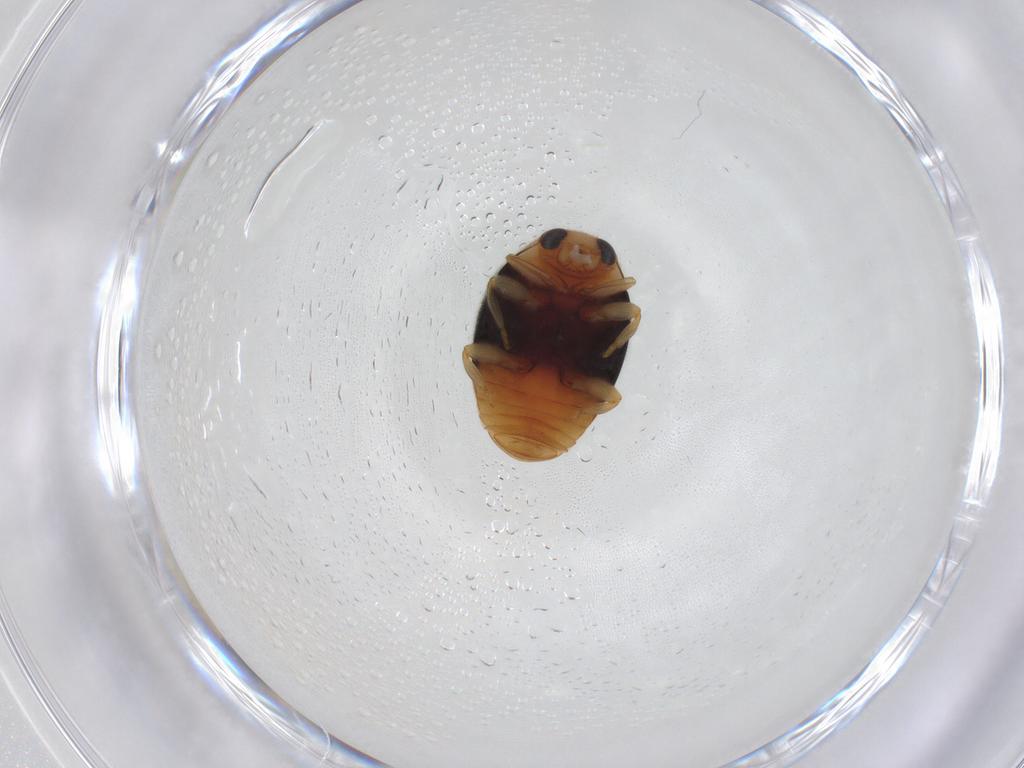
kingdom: Animalia
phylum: Arthropoda
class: Insecta
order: Coleoptera
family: Coccinellidae
